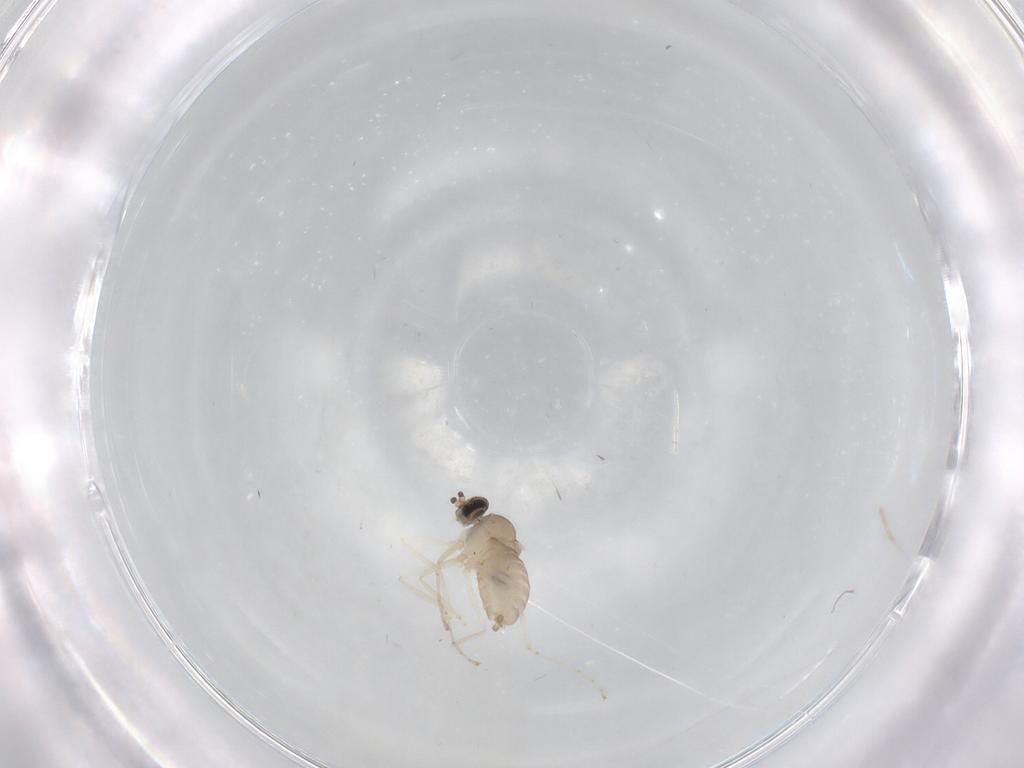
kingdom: Animalia
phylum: Arthropoda
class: Insecta
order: Diptera
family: Cecidomyiidae
